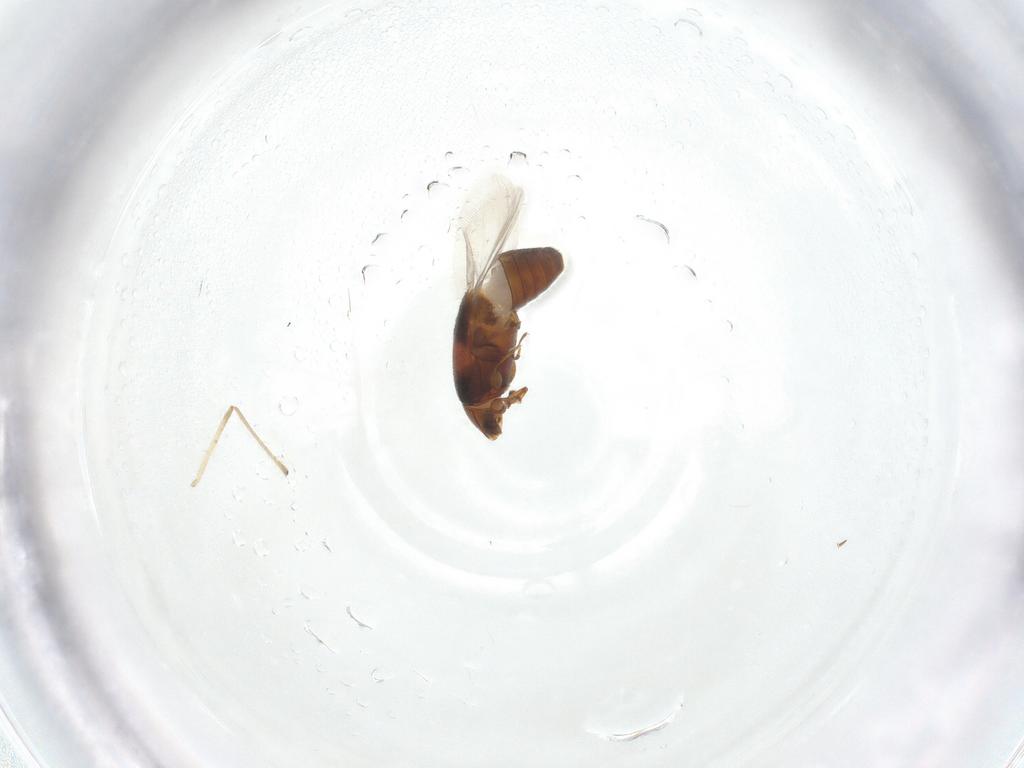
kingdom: Animalia
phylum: Arthropoda
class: Insecta
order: Coleoptera
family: Corylophidae
